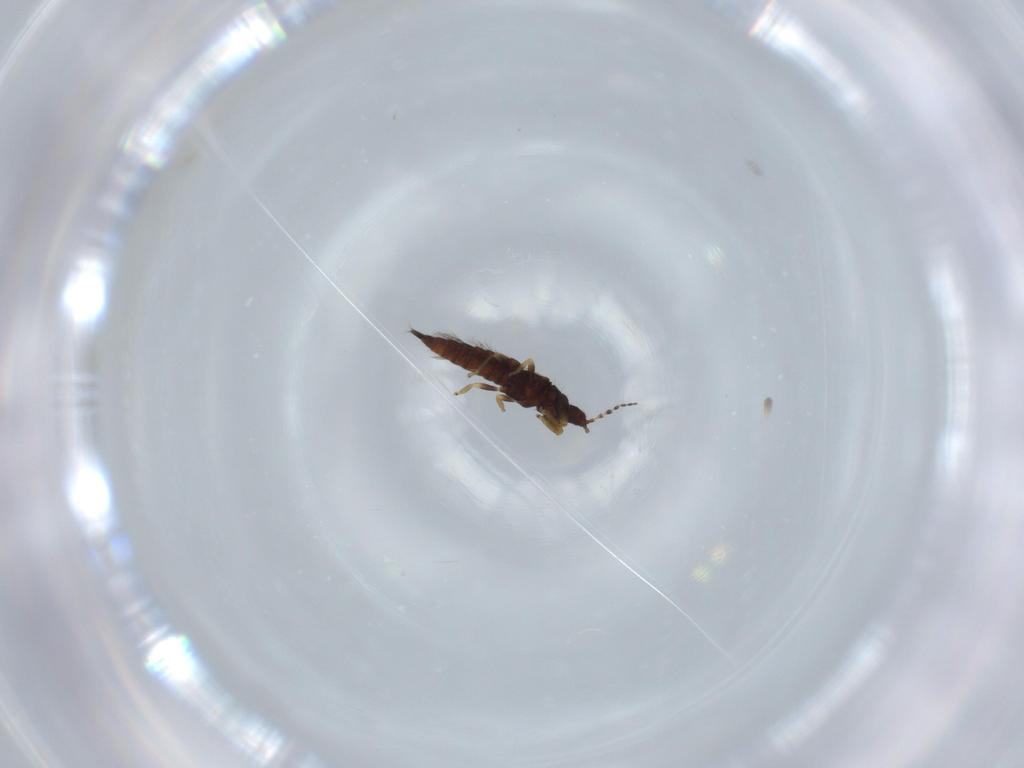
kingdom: Animalia
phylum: Arthropoda
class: Insecta
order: Thysanoptera
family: Phlaeothripidae
